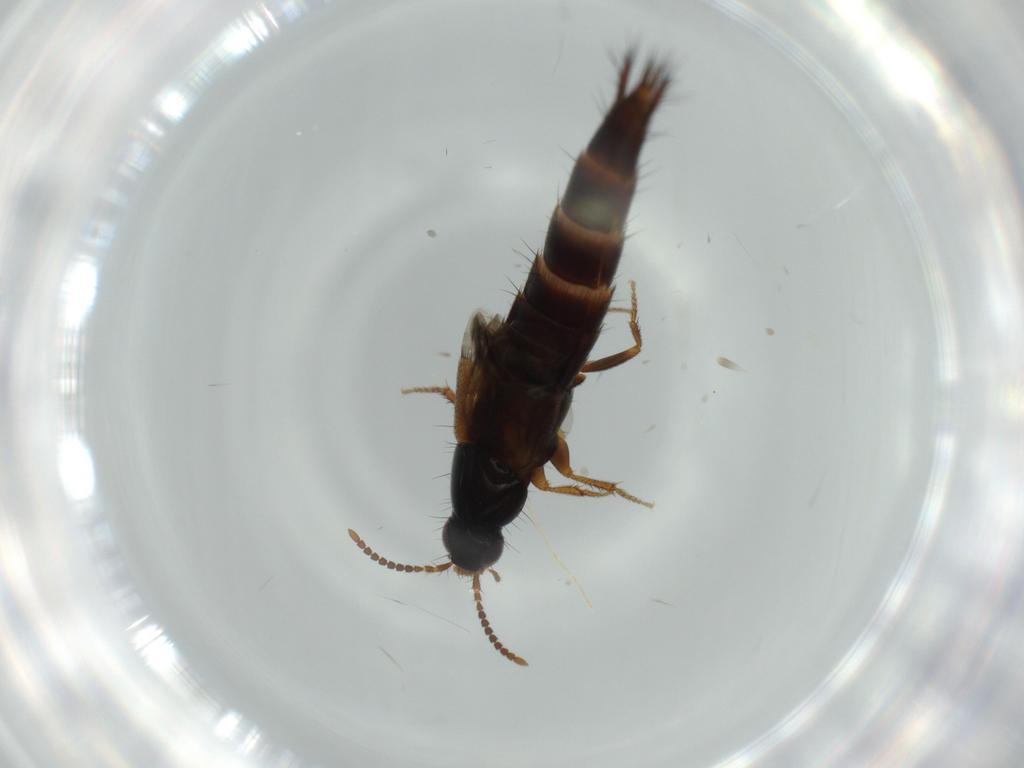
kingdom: Animalia
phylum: Arthropoda
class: Insecta
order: Coleoptera
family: Staphylinidae
